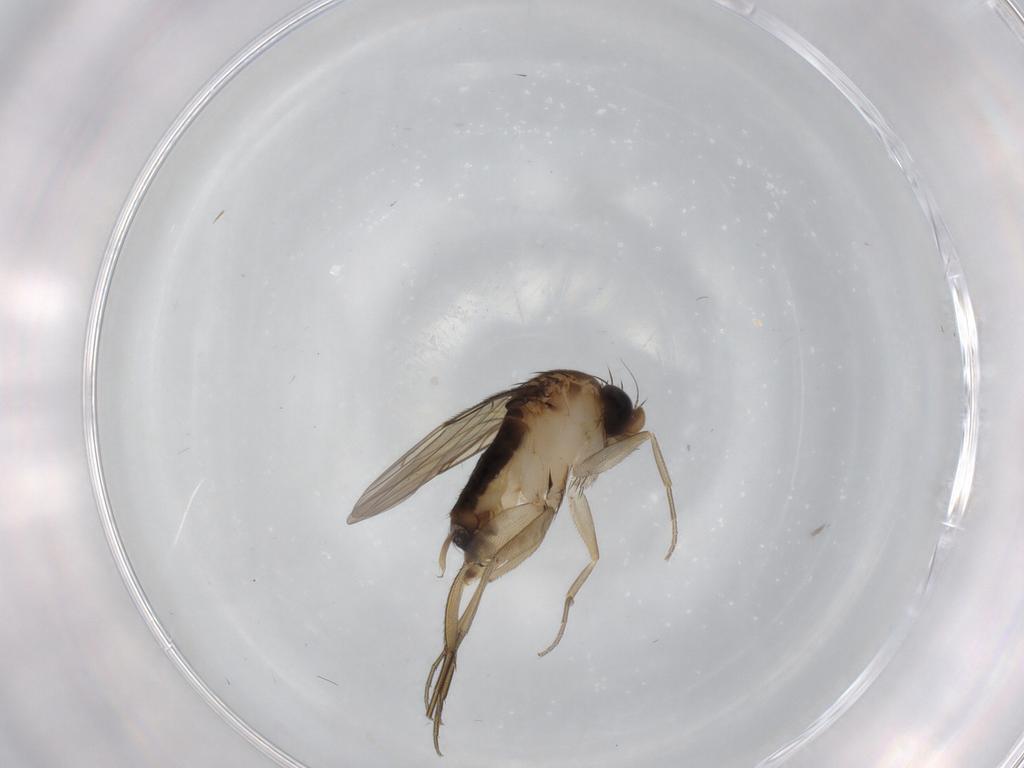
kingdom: Animalia
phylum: Arthropoda
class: Insecta
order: Diptera
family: Phoridae
